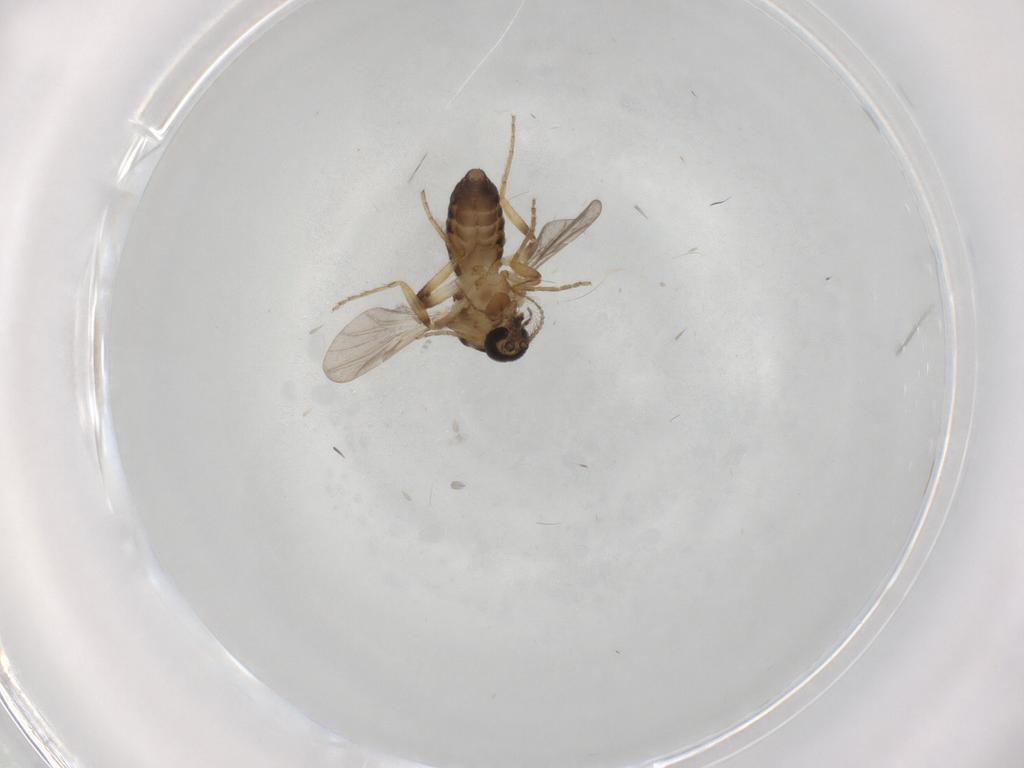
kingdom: Animalia
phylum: Arthropoda
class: Insecta
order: Diptera
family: Ceratopogonidae
